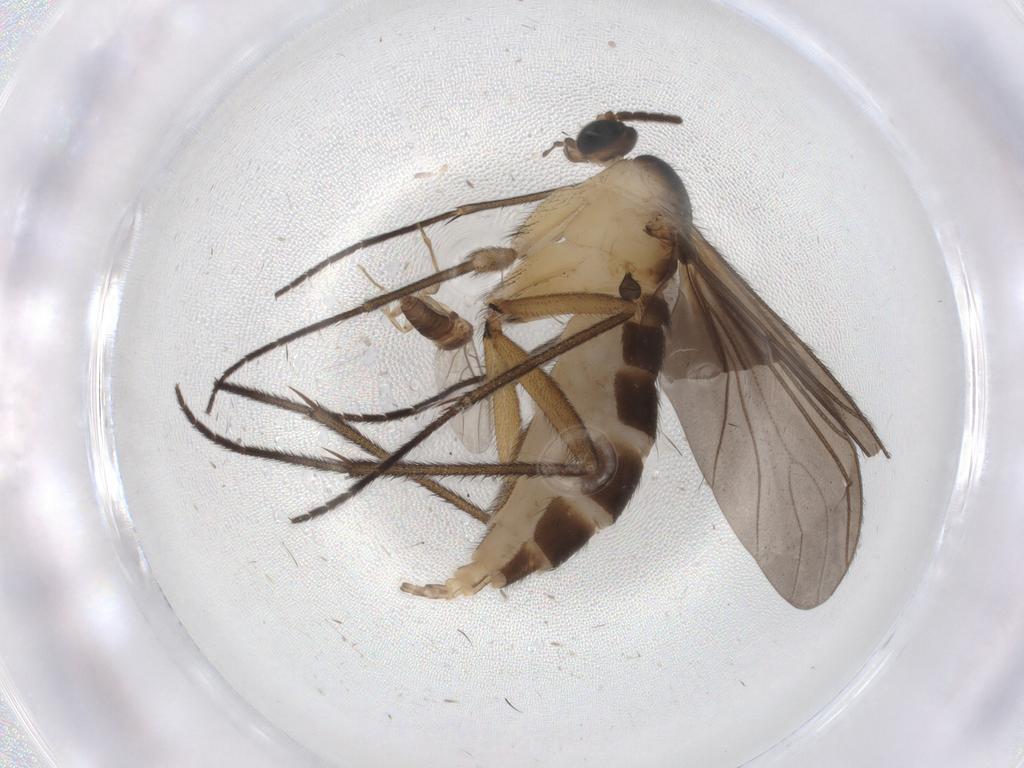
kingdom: Animalia
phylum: Arthropoda
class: Insecta
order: Diptera
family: Sciaridae
